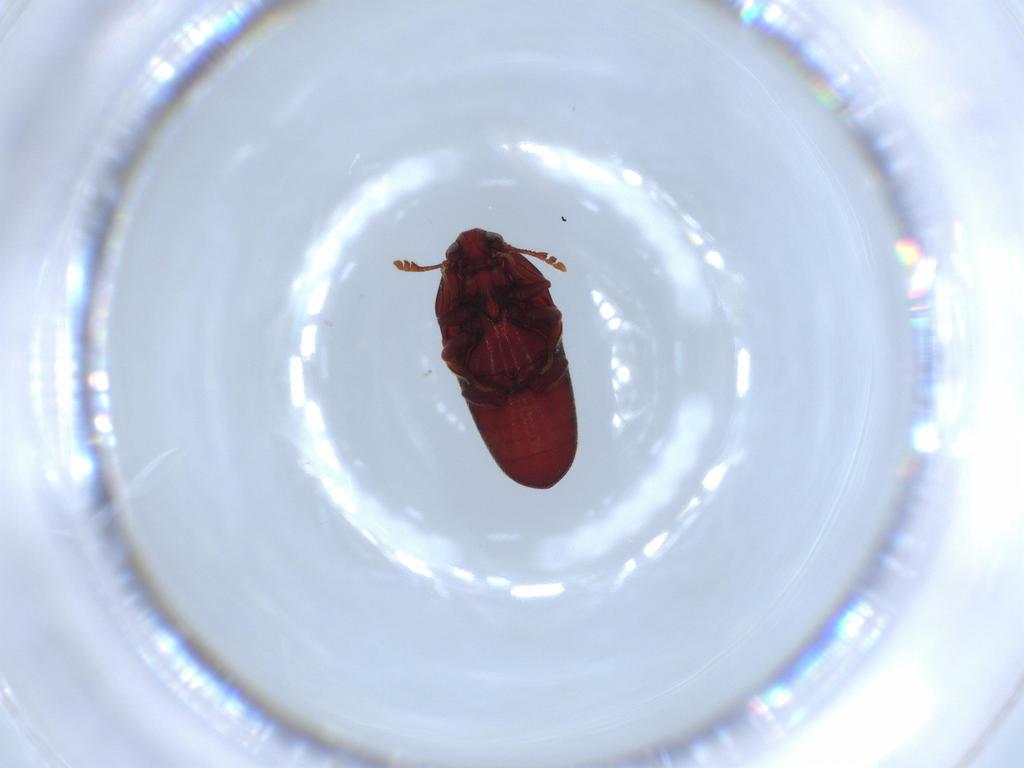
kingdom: Animalia
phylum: Arthropoda
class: Insecta
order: Coleoptera
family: Throscidae
